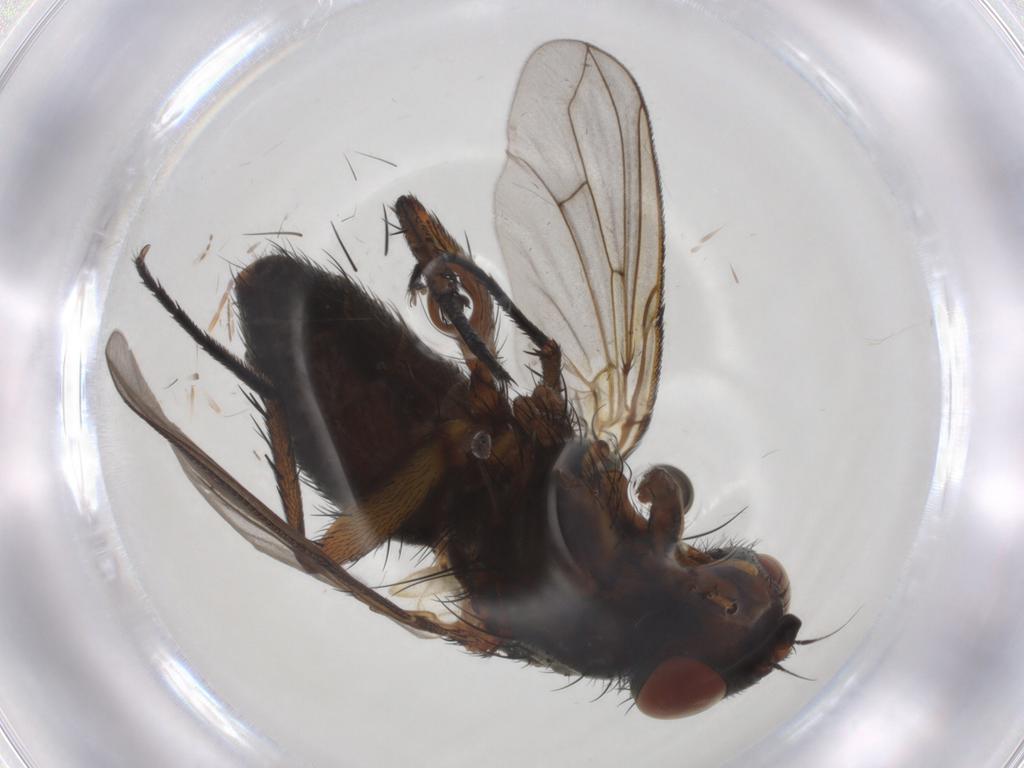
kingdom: Animalia
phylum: Arthropoda
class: Insecta
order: Diptera
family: Calliphoridae
